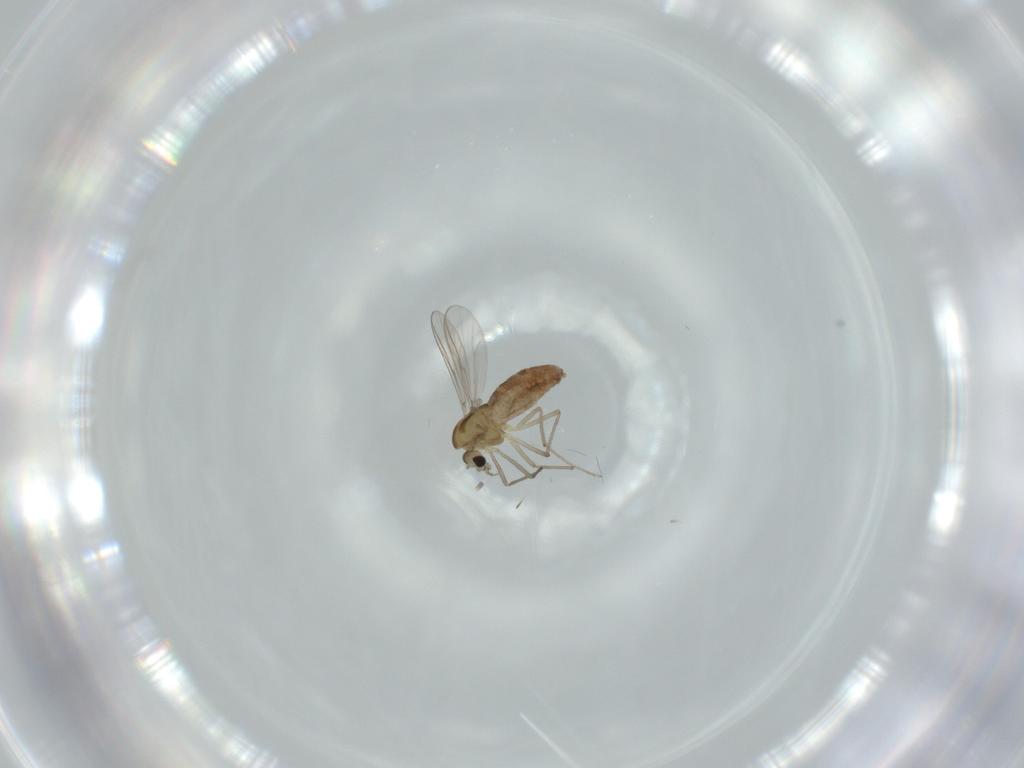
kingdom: Animalia
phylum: Arthropoda
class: Insecta
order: Diptera
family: Chironomidae
